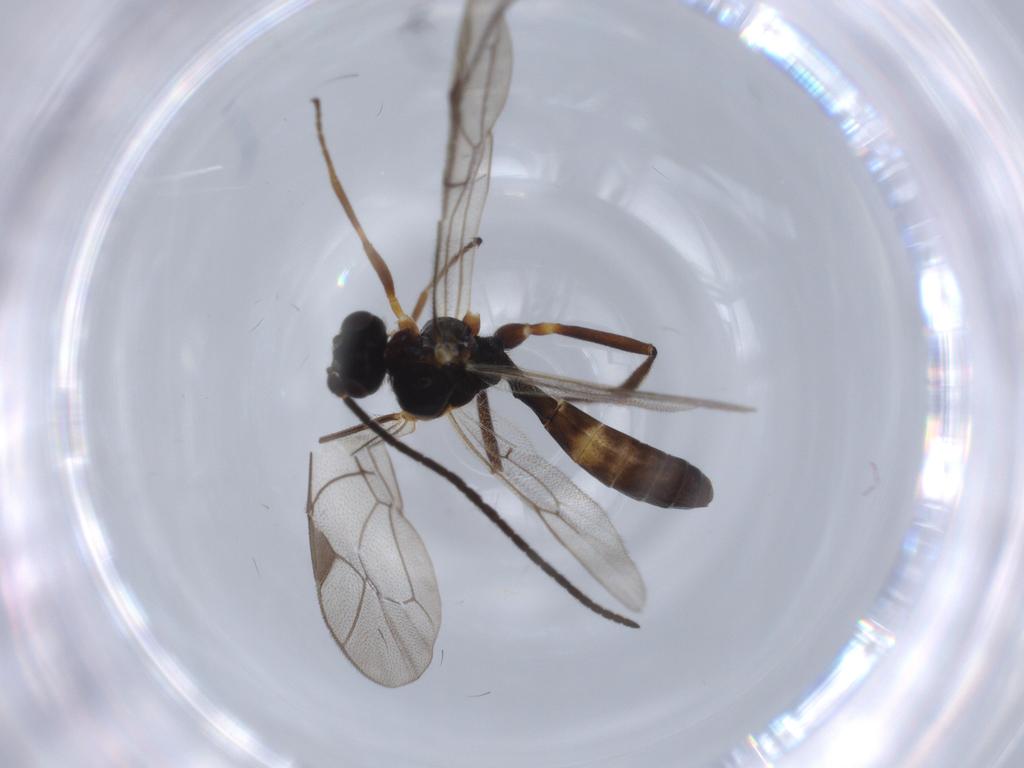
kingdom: Animalia
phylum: Arthropoda
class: Insecta
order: Hymenoptera
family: Ichneumonidae
